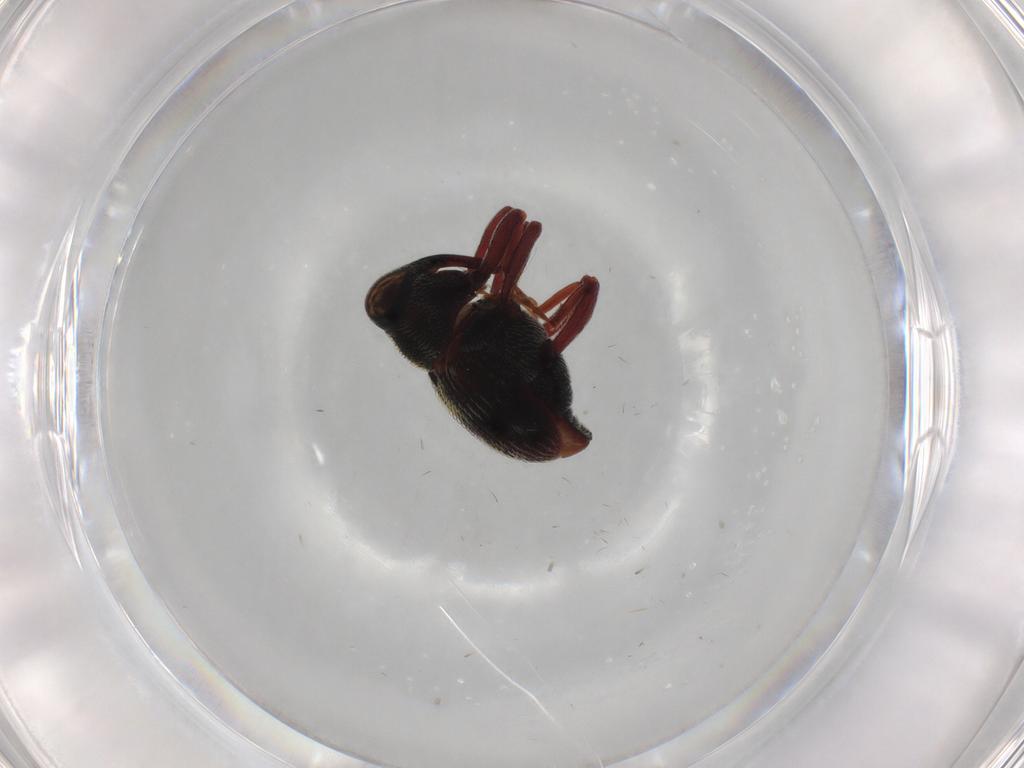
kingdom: Animalia
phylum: Arthropoda
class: Insecta
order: Coleoptera
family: Curculionidae
